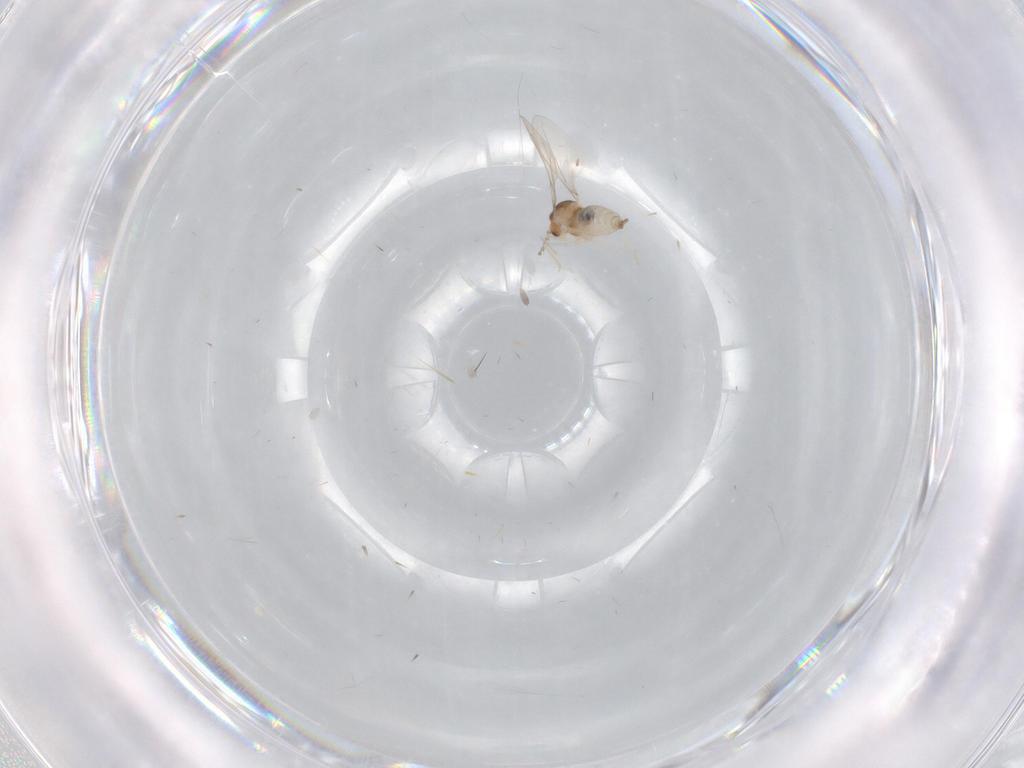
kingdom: Animalia
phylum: Arthropoda
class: Insecta
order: Diptera
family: Cecidomyiidae
